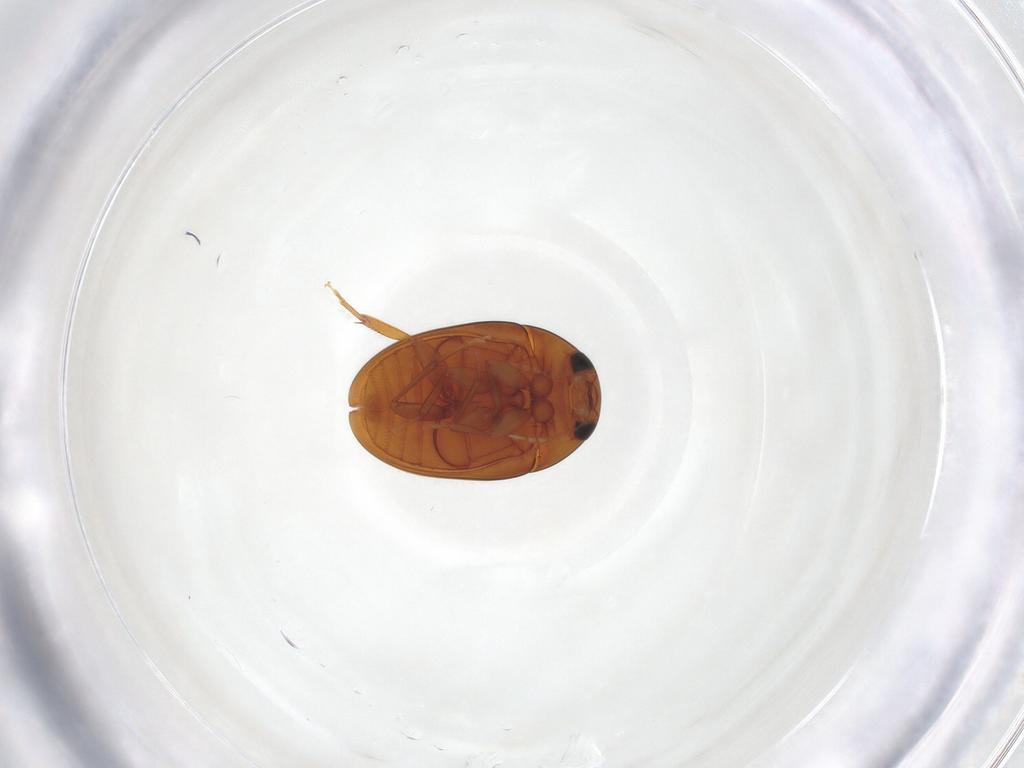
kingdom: Animalia
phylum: Arthropoda
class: Insecta
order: Coleoptera
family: Phalacridae
